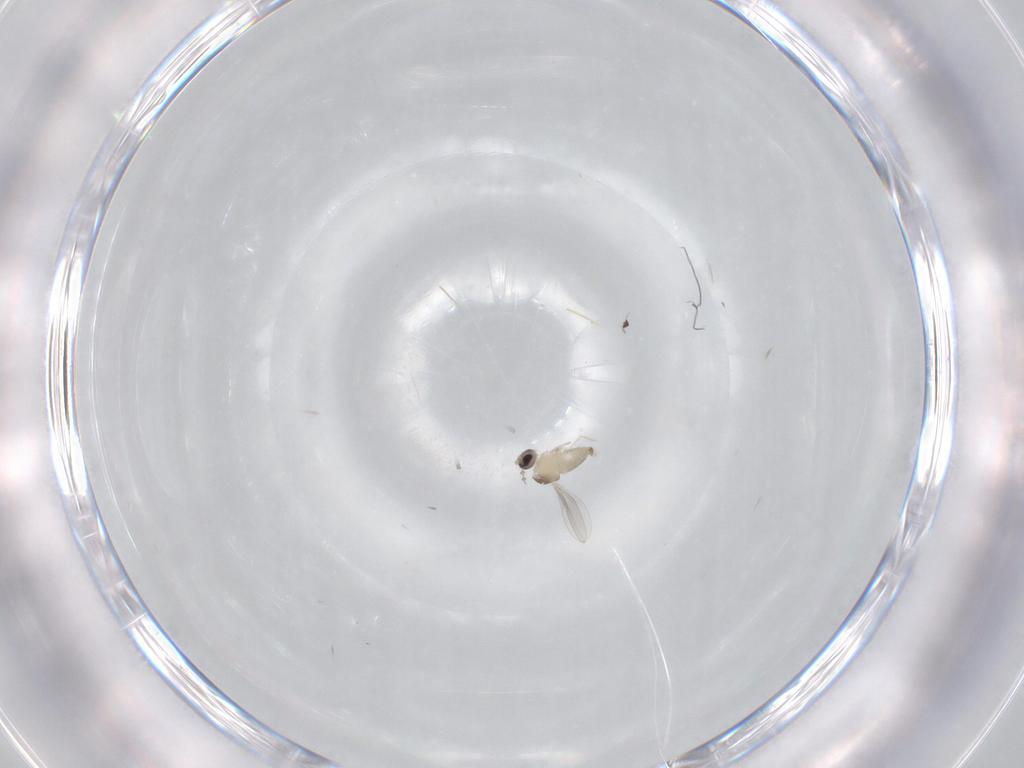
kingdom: Animalia
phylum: Arthropoda
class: Insecta
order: Diptera
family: Cecidomyiidae
